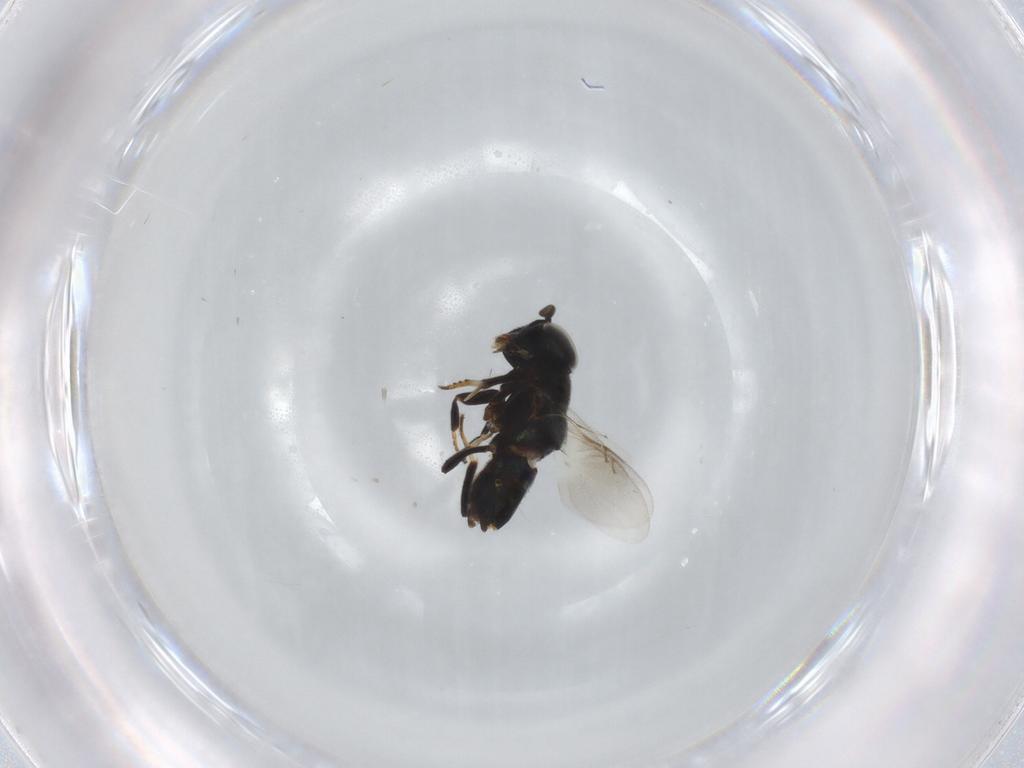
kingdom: Animalia
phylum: Arthropoda
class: Insecta
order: Hymenoptera
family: Encyrtidae
